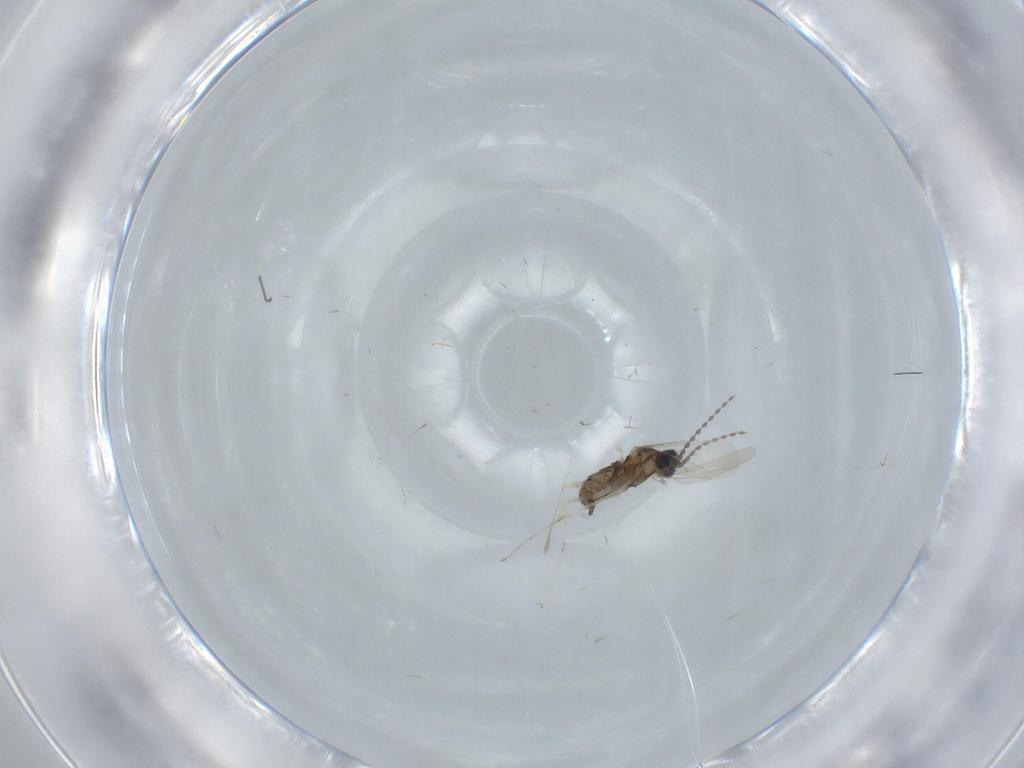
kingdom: Animalia
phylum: Arthropoda
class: Insecta
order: Diptera
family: Cecidomyiidae
